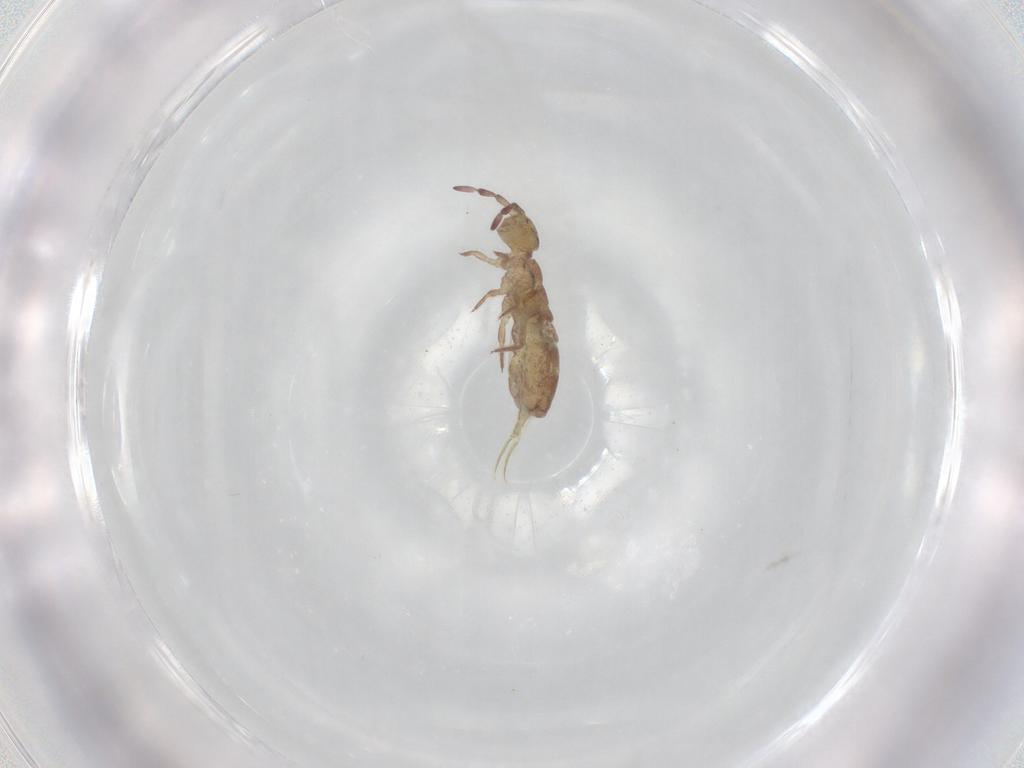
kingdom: Animalia
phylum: Arthropoda
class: Collembola
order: Entomobryomorpha
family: Isotomidae
